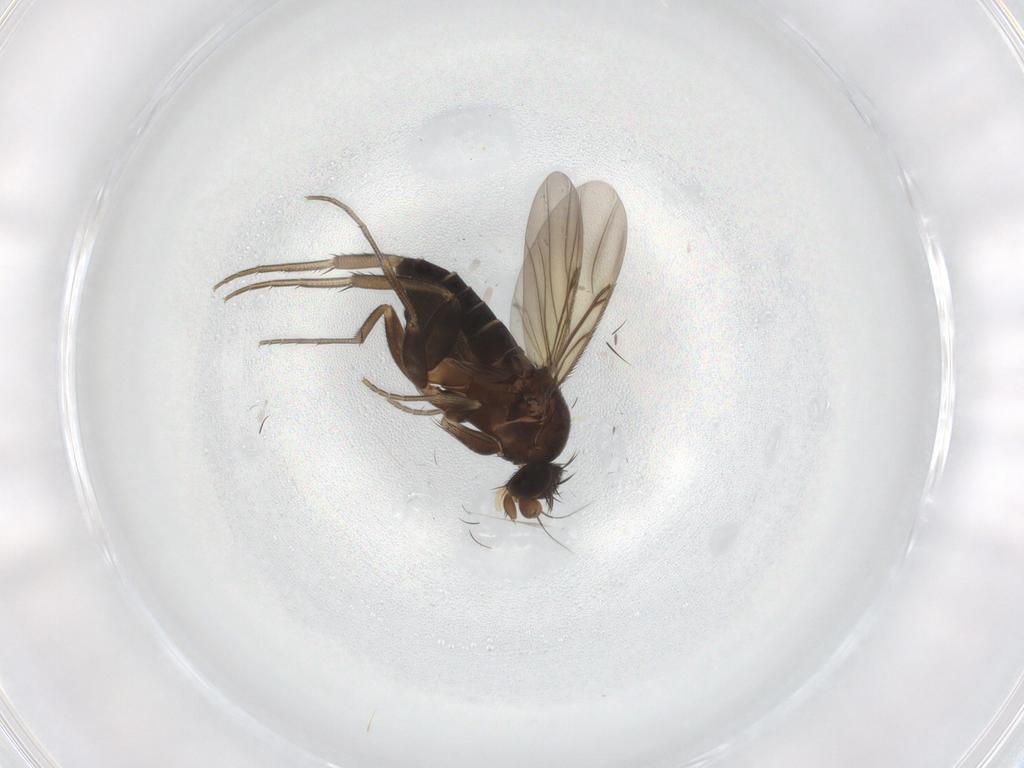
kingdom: Animalia
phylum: Arthropoda
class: Insecta
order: Diptera
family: Phoridae
